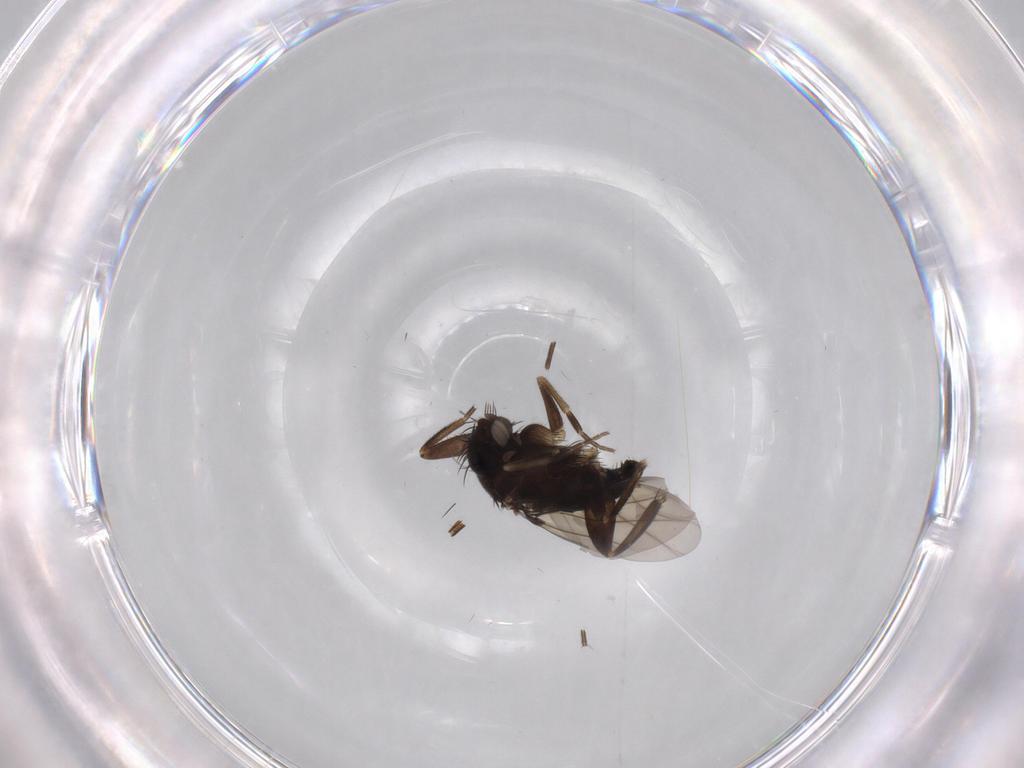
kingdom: Animalia
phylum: Arthropoda
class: Insecta
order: Diptera
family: Phoridae
